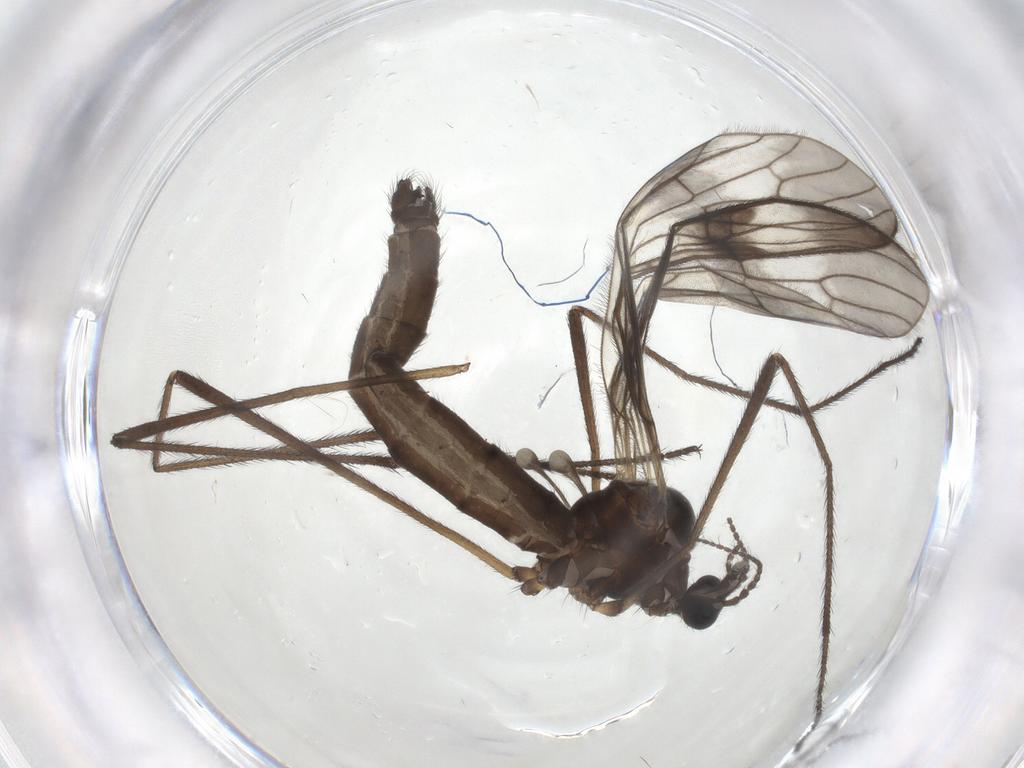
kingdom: Animalia
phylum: Arthropoda
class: Insecta
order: Diptera
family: Limoniidae
